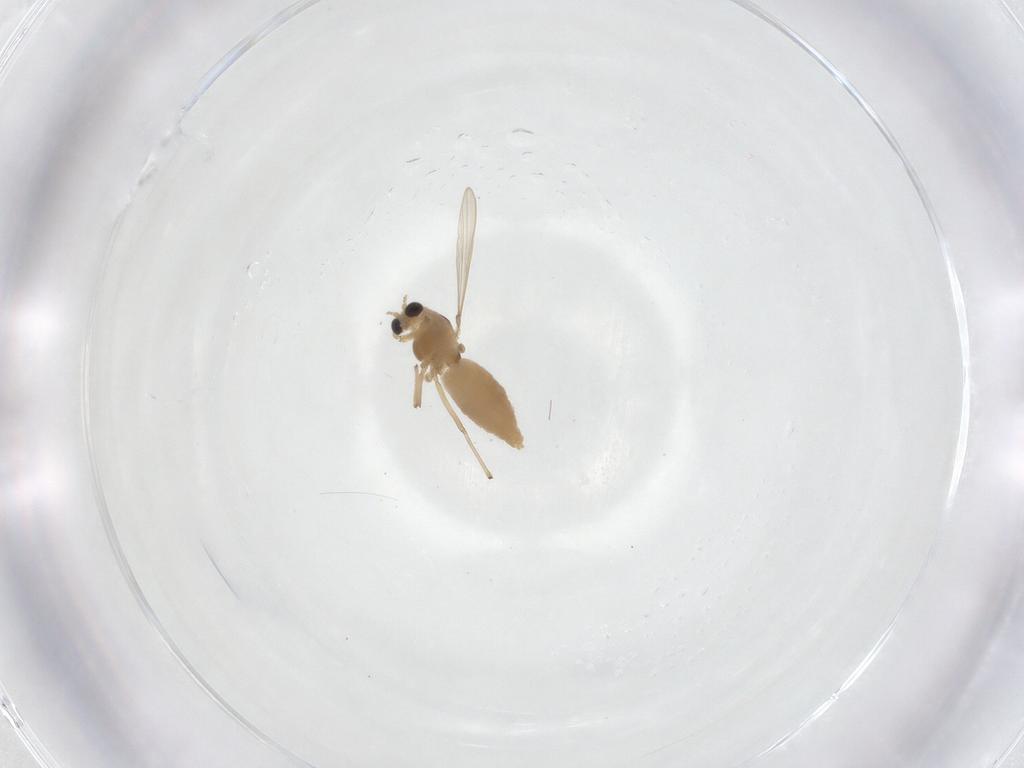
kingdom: Animalia
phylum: Arthropoda
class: Insecta
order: Diptera
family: Chironomidae
